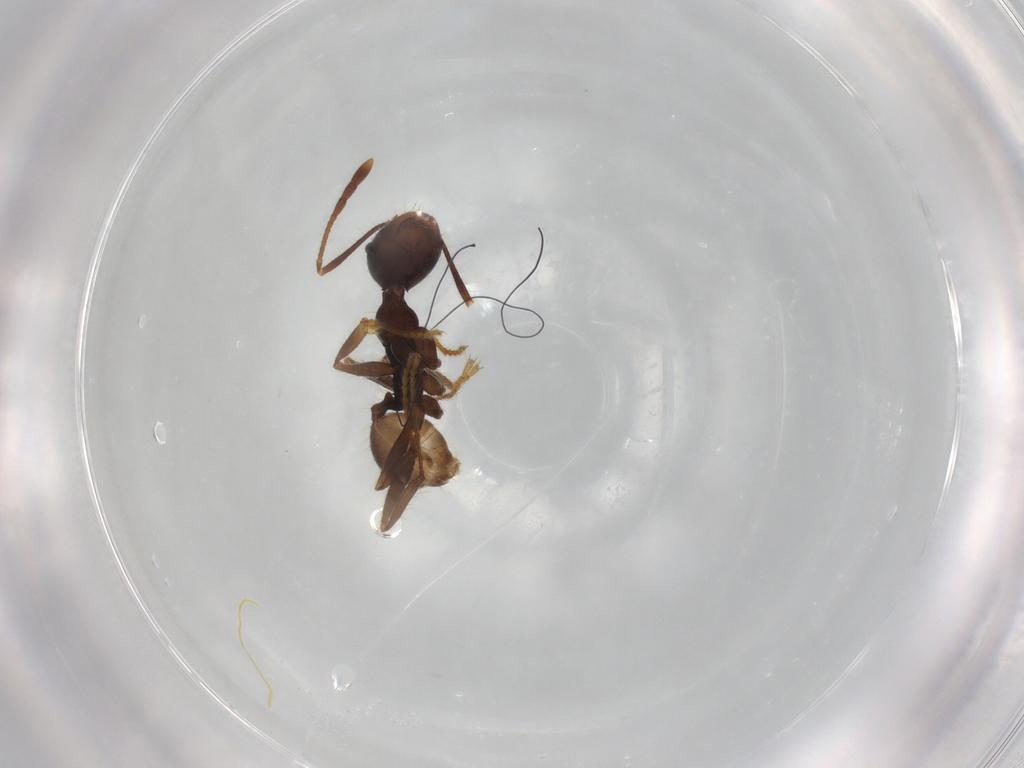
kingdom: Animalia
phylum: Arthropoda
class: Insecta
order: Hymenoptera
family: Formicidae
